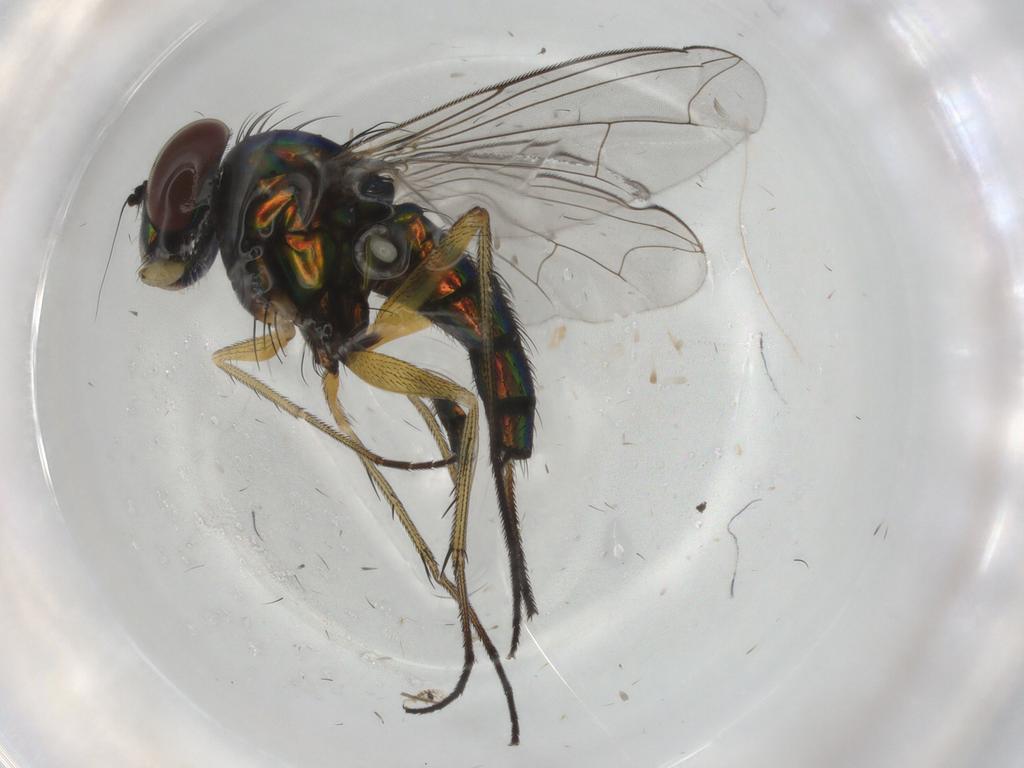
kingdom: Animalia
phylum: Arthropoda
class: Insecta
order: Diptera
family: Dolichopodidae
